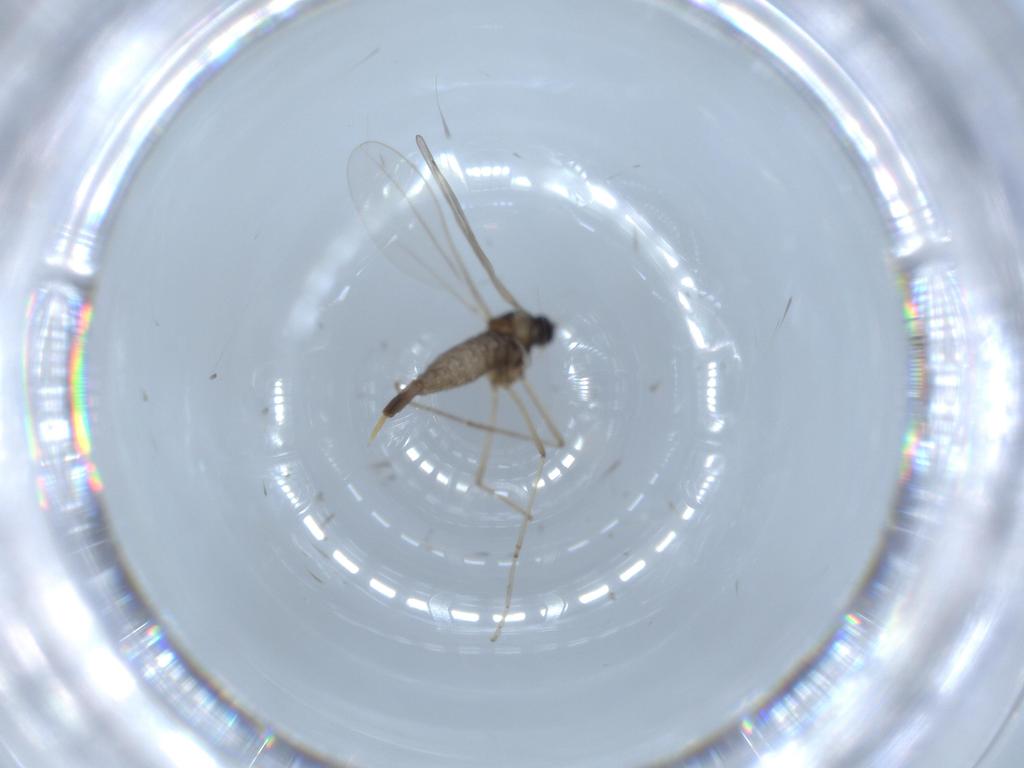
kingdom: Animalia
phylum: Arthropoda
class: Insecta
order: Diptera
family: Cecidomyiidae
